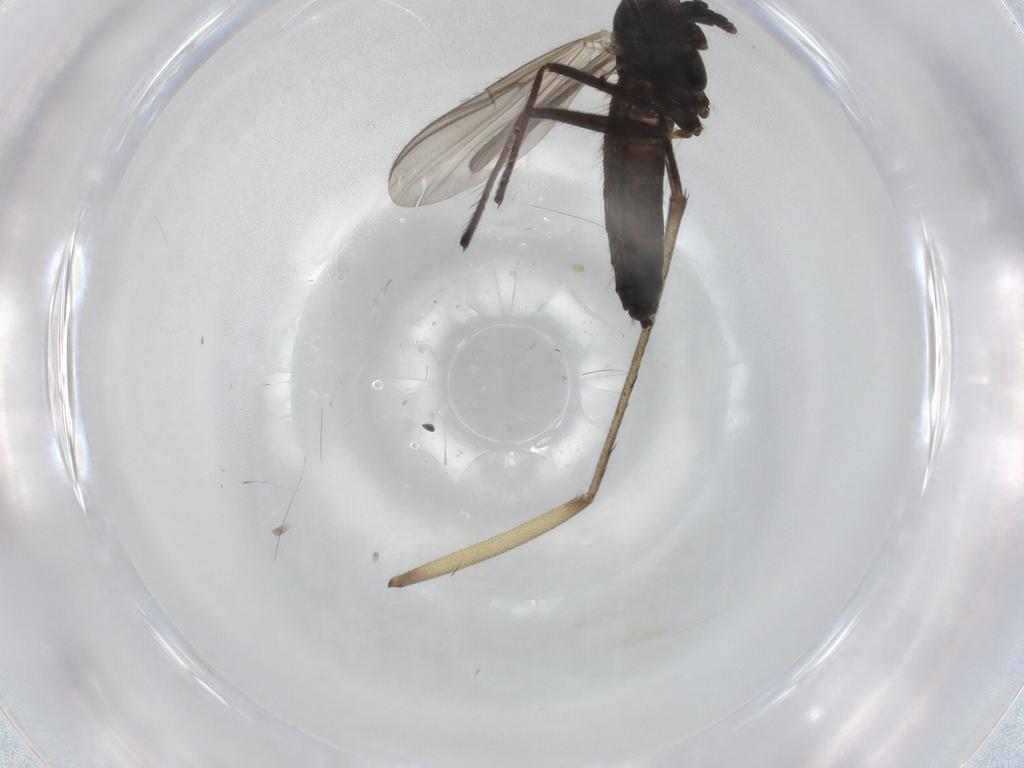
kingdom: Animalia
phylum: Arthropoda
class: Insecta
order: Diptera
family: Chironomidae
